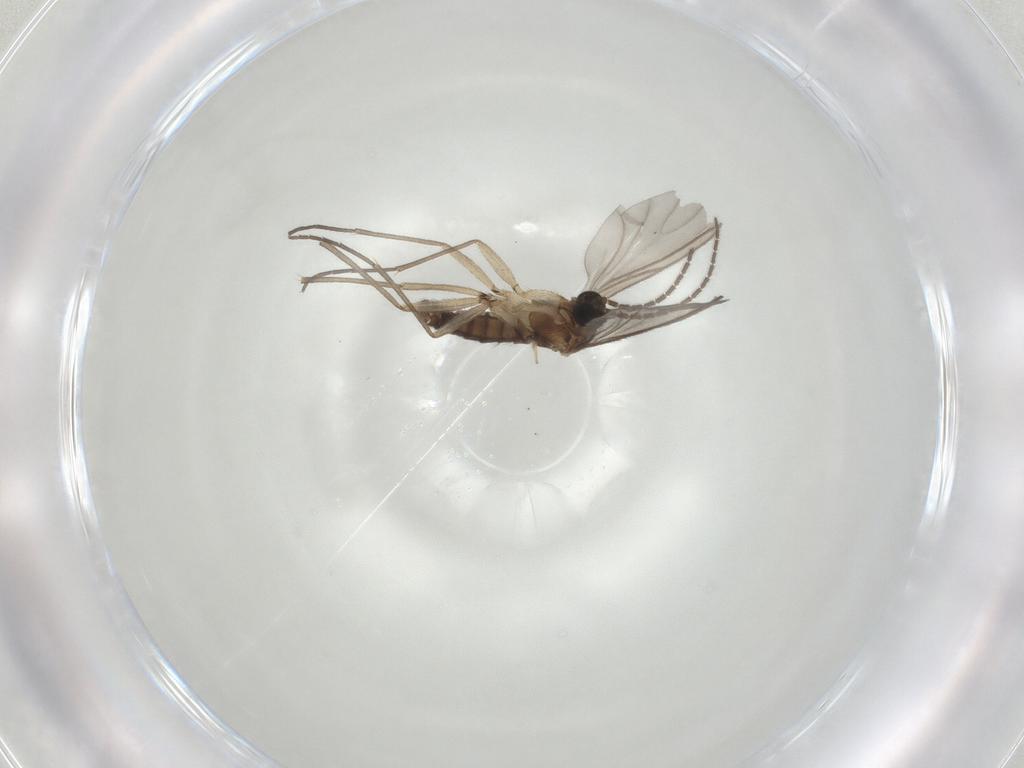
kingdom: Animalia
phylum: Arthropoda
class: Insecta
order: Diptera
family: Sciaridae
